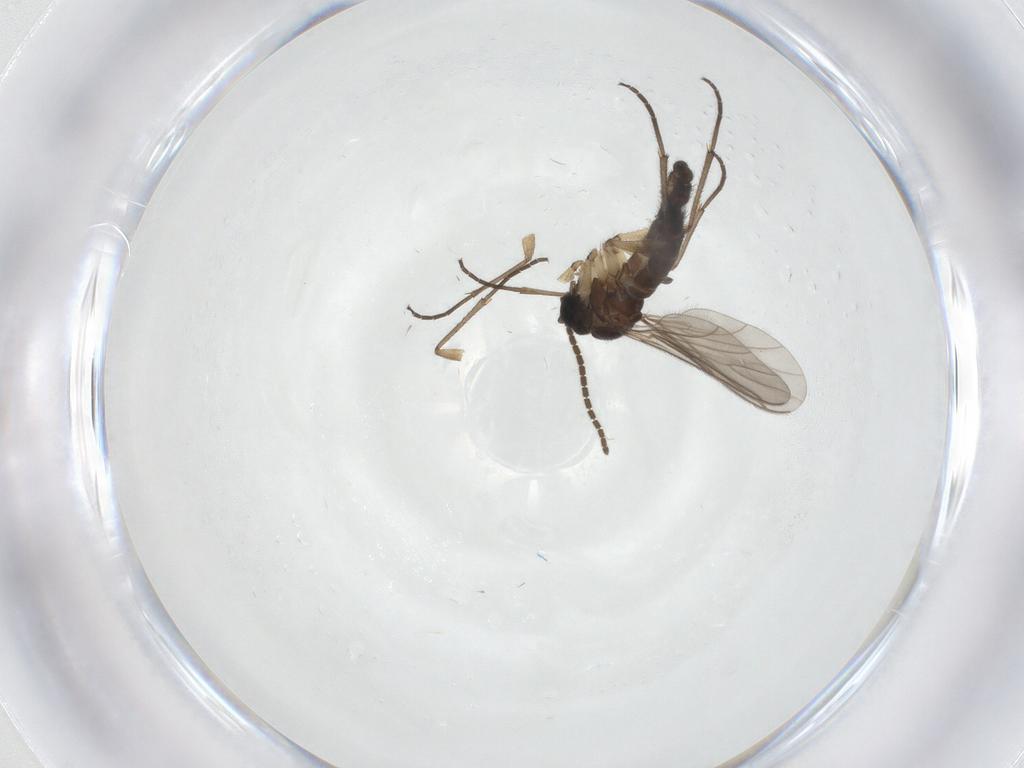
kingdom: Animalia
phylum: Arthropoda
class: Insecta
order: Diptera
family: Sciaridae
